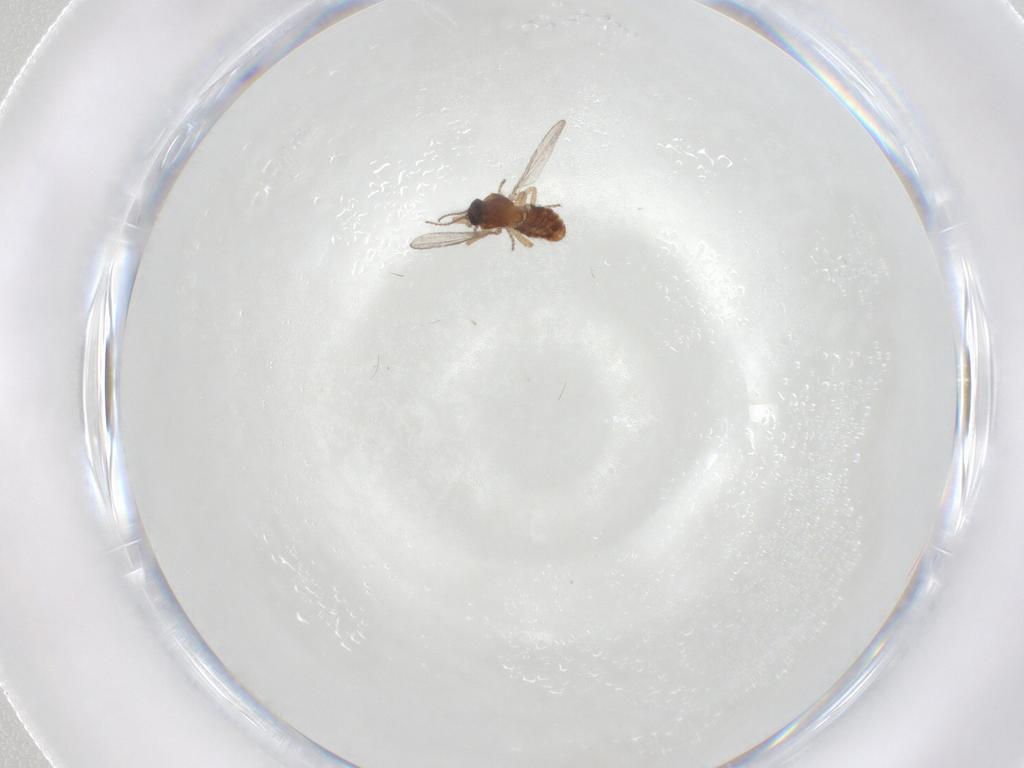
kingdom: Animalia
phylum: Arthropoda
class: Insecta
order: Diptera
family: Ceratopogonidae
